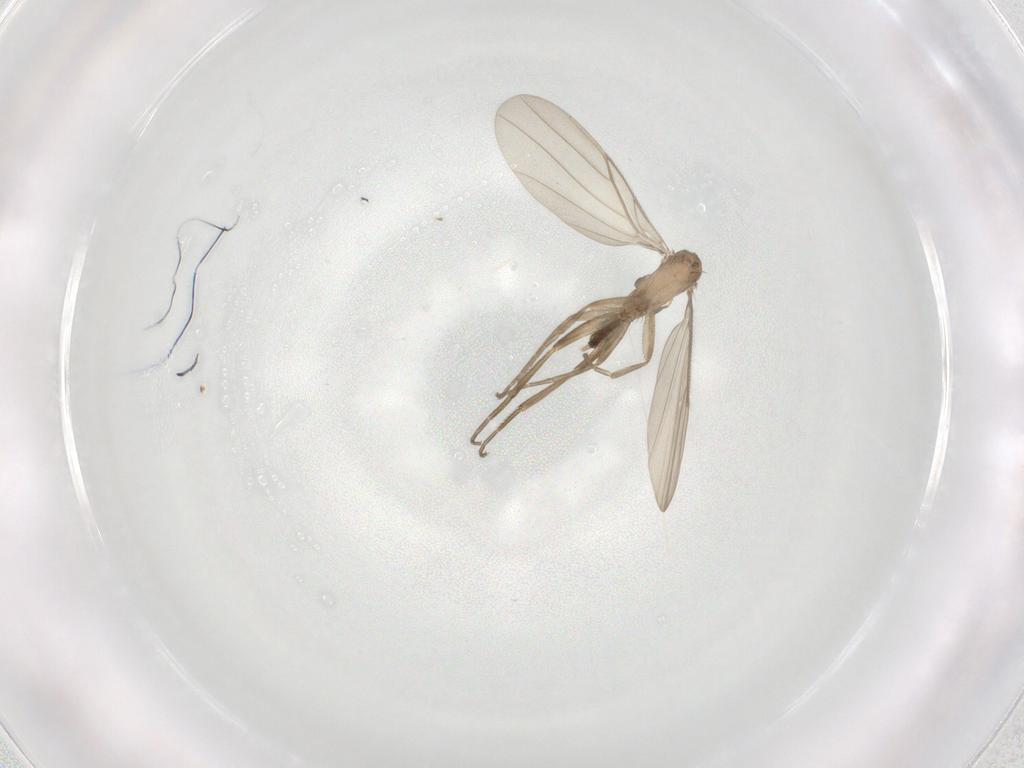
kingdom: Animalia
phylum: Arthropoda
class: Insecta
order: Diptera
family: Phoridae
